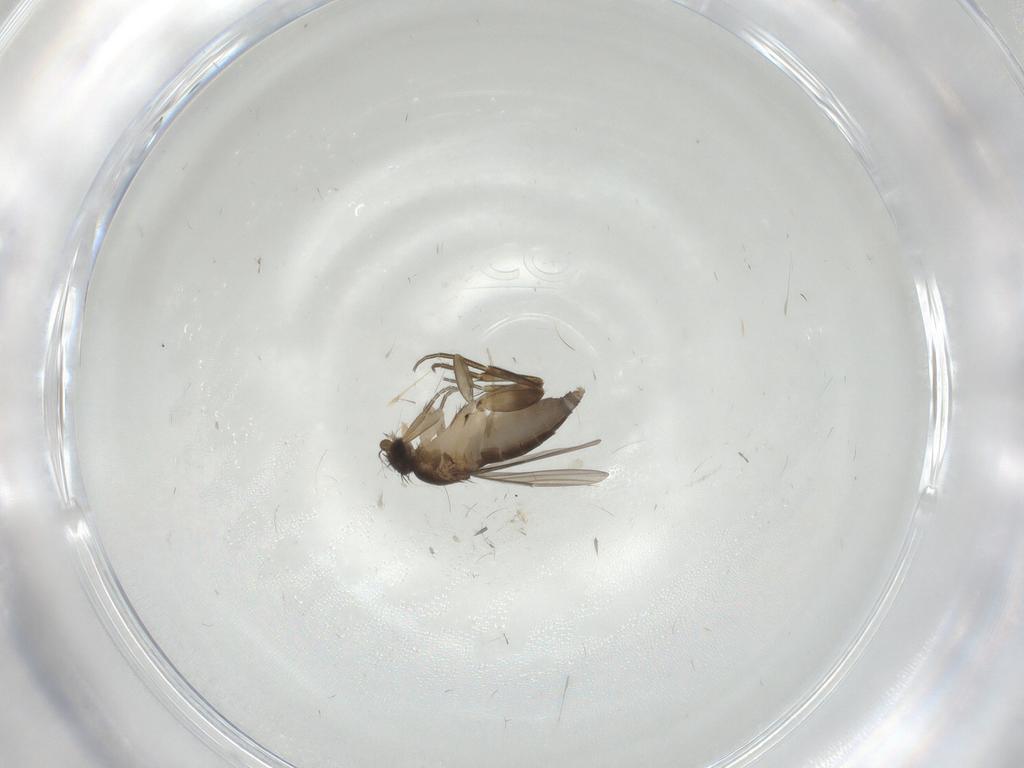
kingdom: Animalia
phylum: Arthropoda
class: Insecta
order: Diptera
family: Phoridae
